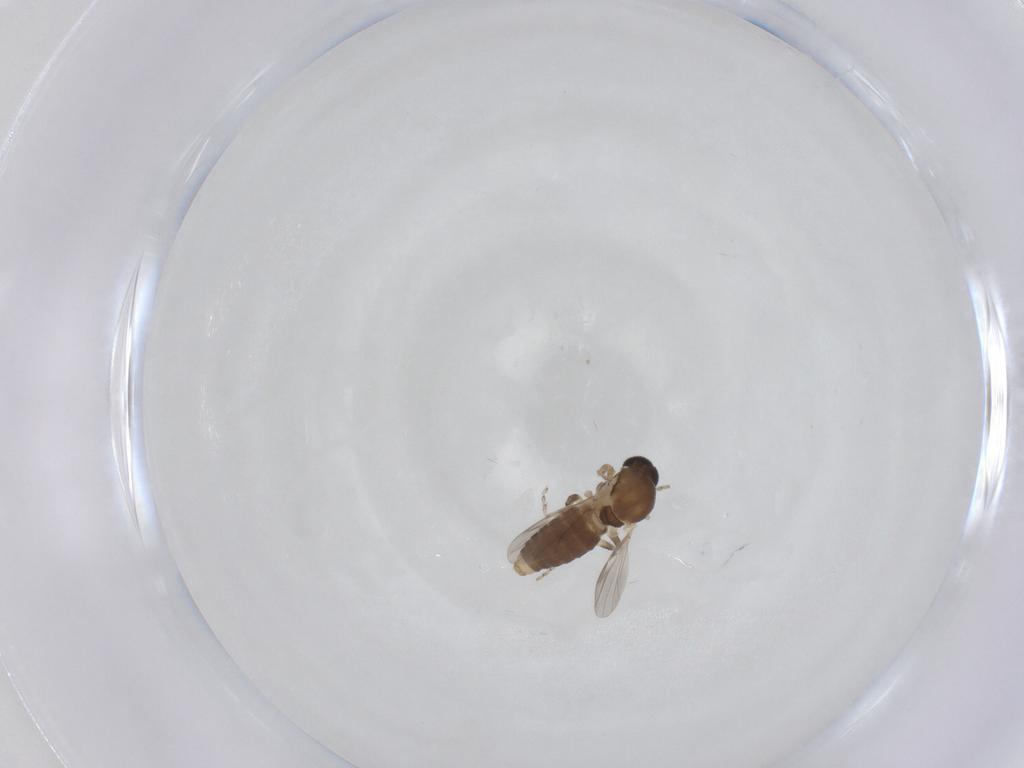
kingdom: Animalia
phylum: Arthropoda
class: Insecta
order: Diptera
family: Ceratopogonidae
